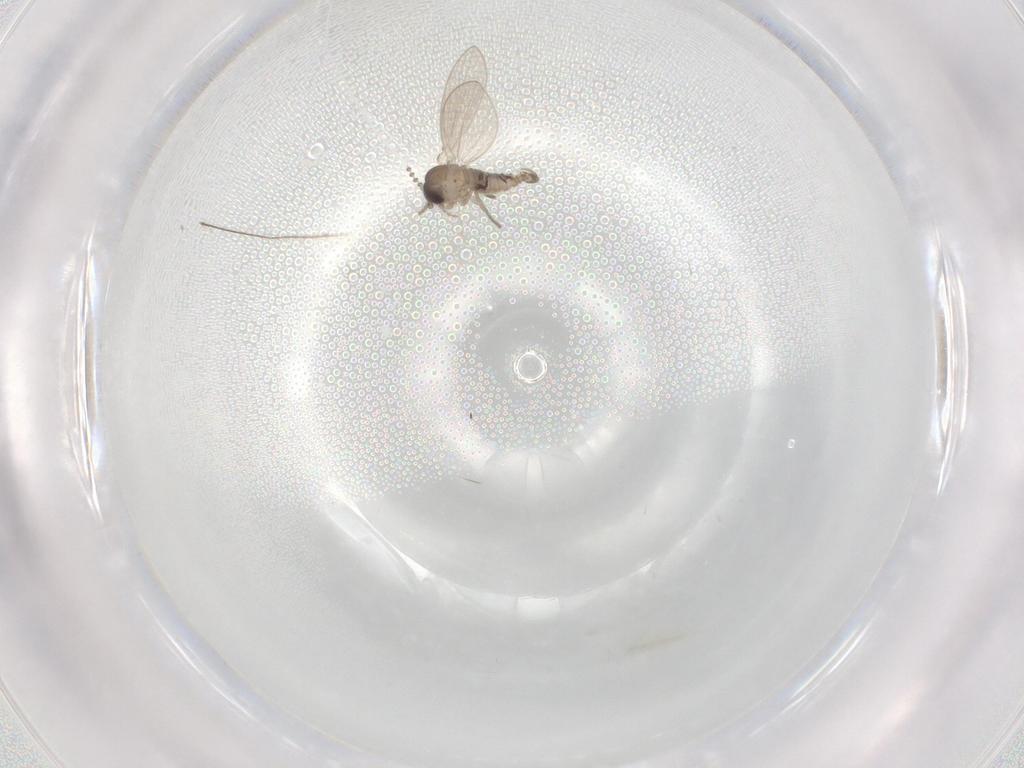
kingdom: Animalia
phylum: Arthropoda
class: Insecta
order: Diptera
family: Psychodidae
